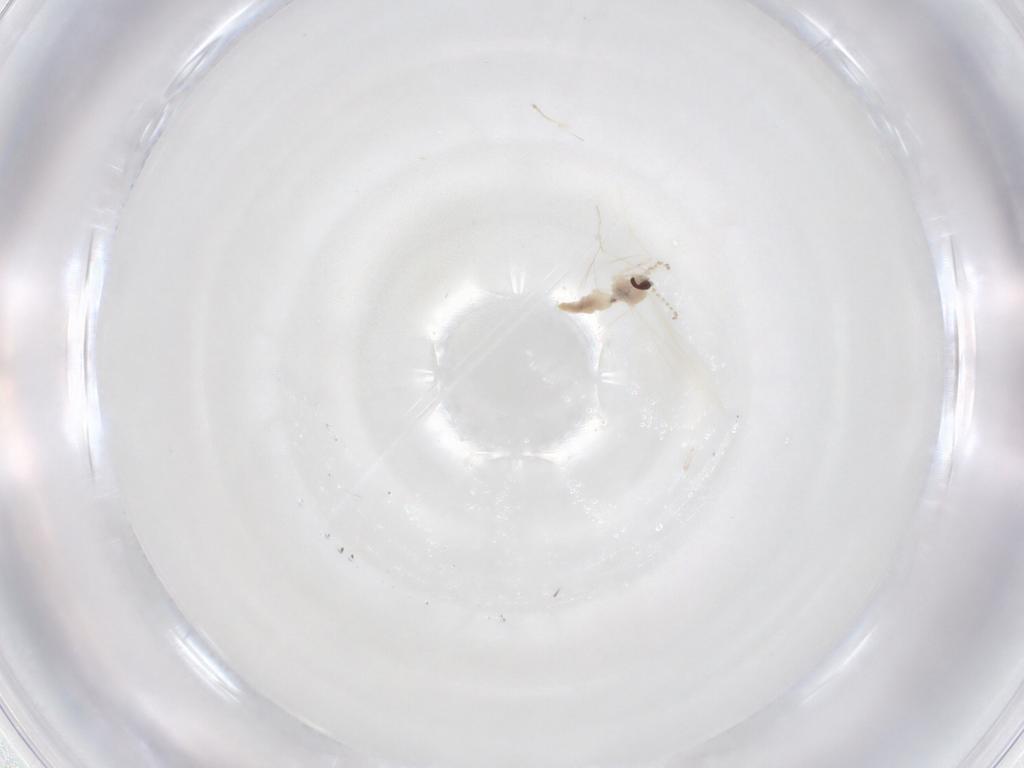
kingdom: Animalia
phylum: Arthropoda
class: Insecta
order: Diptera
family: Cecidomyiidae
